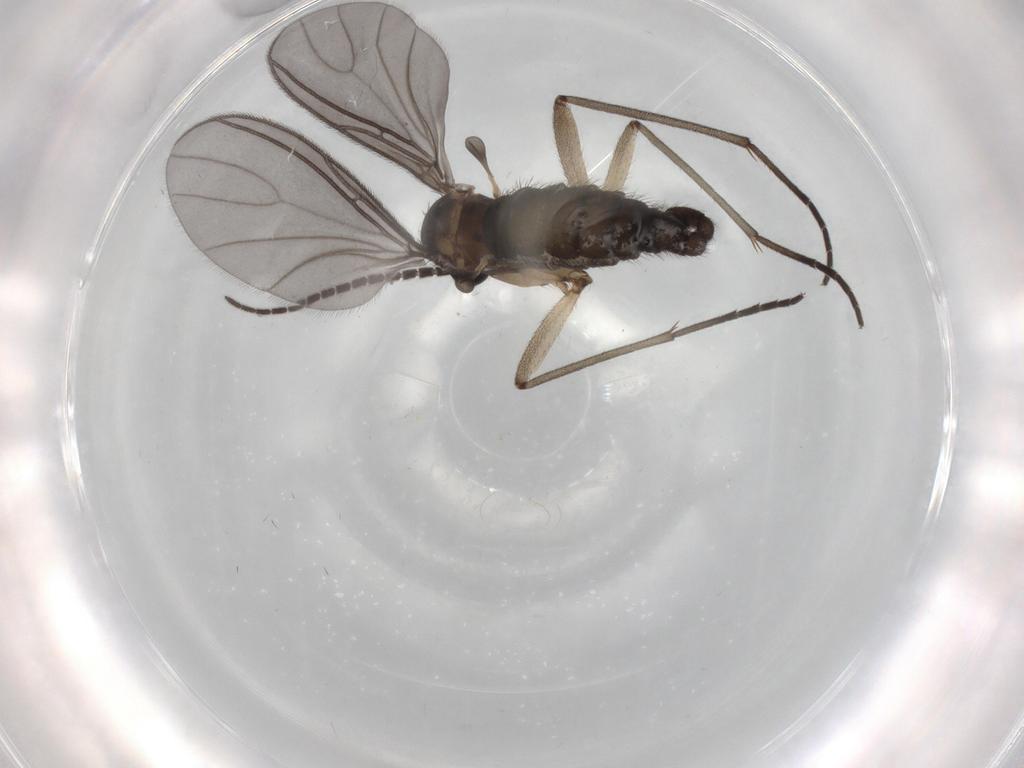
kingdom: Animalia
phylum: Arthropoda
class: Insecta
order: Diptera
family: Sciaridae
